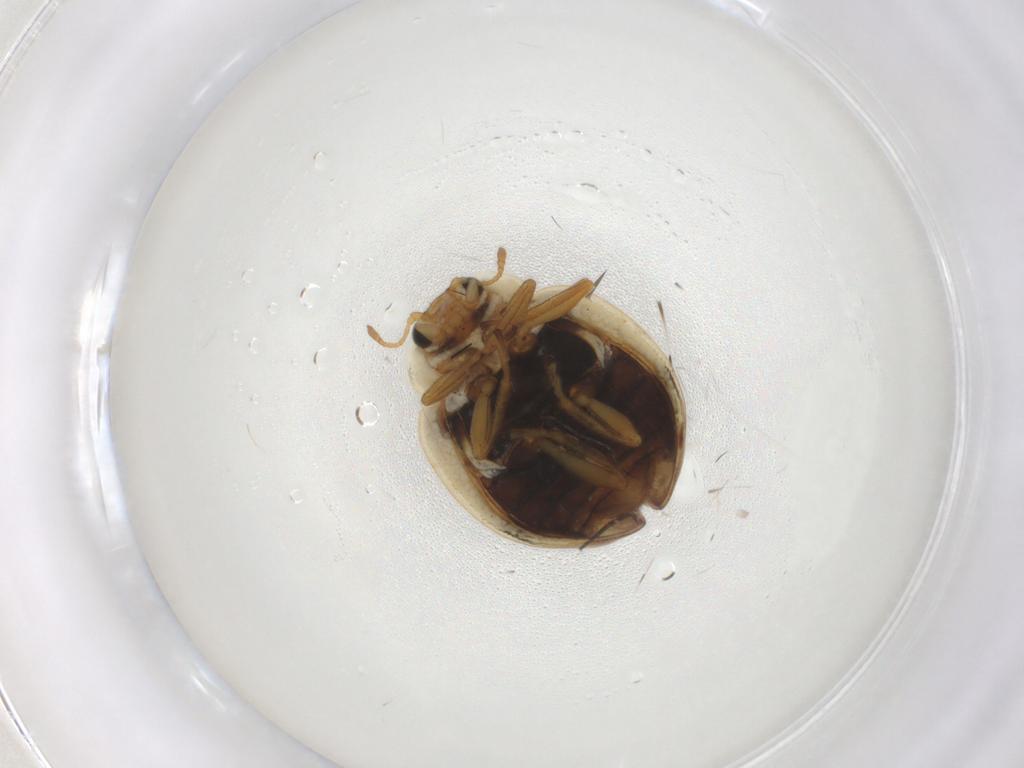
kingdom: Animalia
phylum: Arthropoda
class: Insecta
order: Coleoptera
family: Coccinellidae
